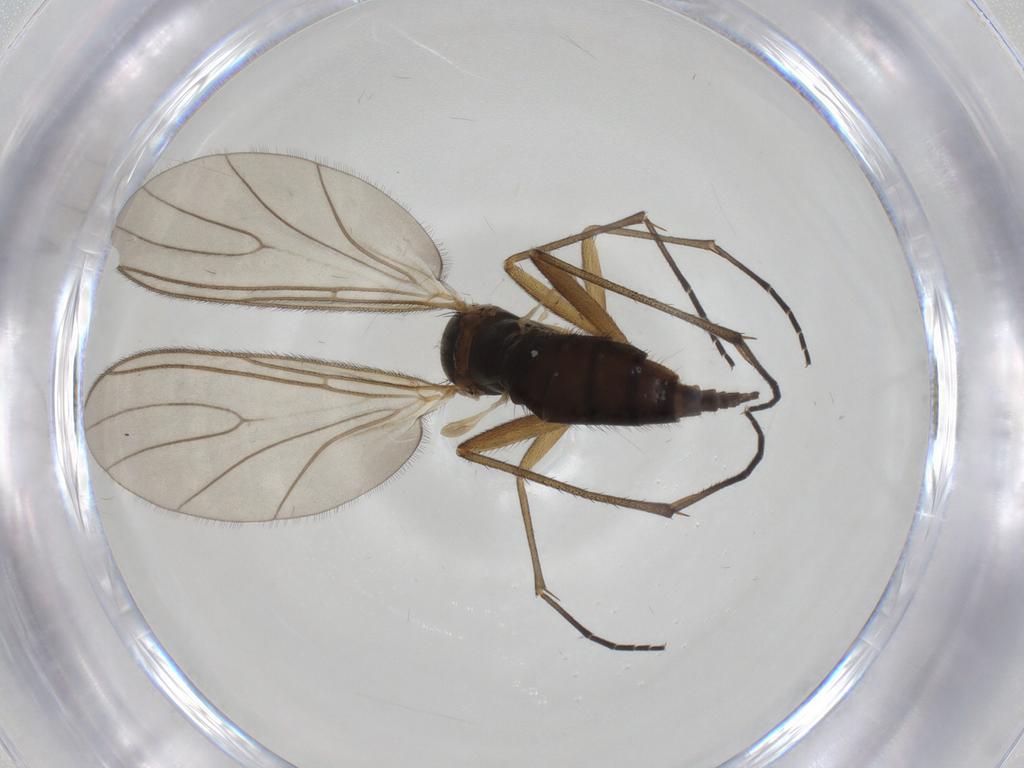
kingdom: Animalia
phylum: Arthropoda
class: Insecta
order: Diptera
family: Sciaridae
